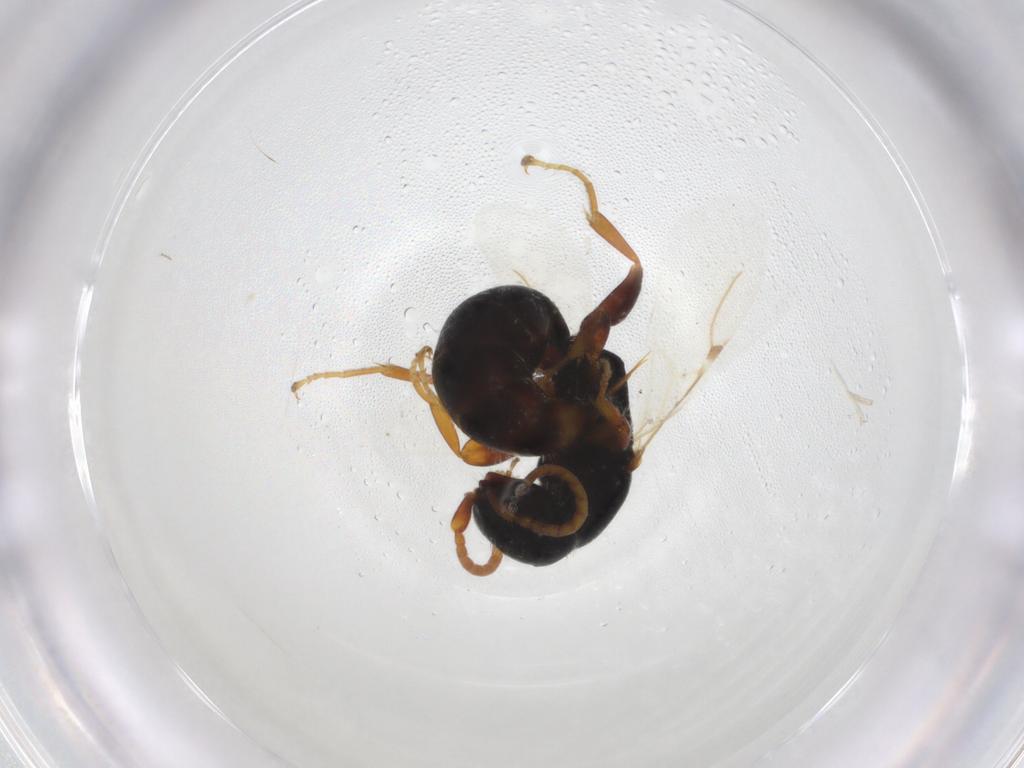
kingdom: Animalia
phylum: Arthropoda
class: Insecta
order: Hymenoptera
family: Bethylidae
